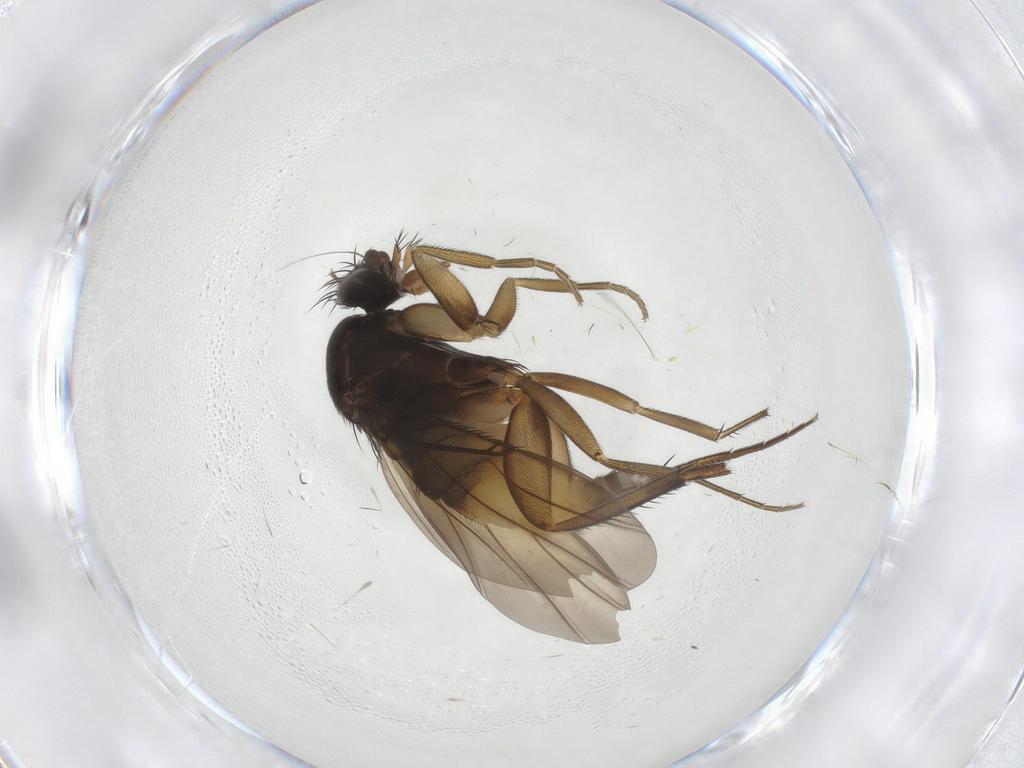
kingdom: Animalia
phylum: Arthropoda
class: Insecta
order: Diptera
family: Phoridae
